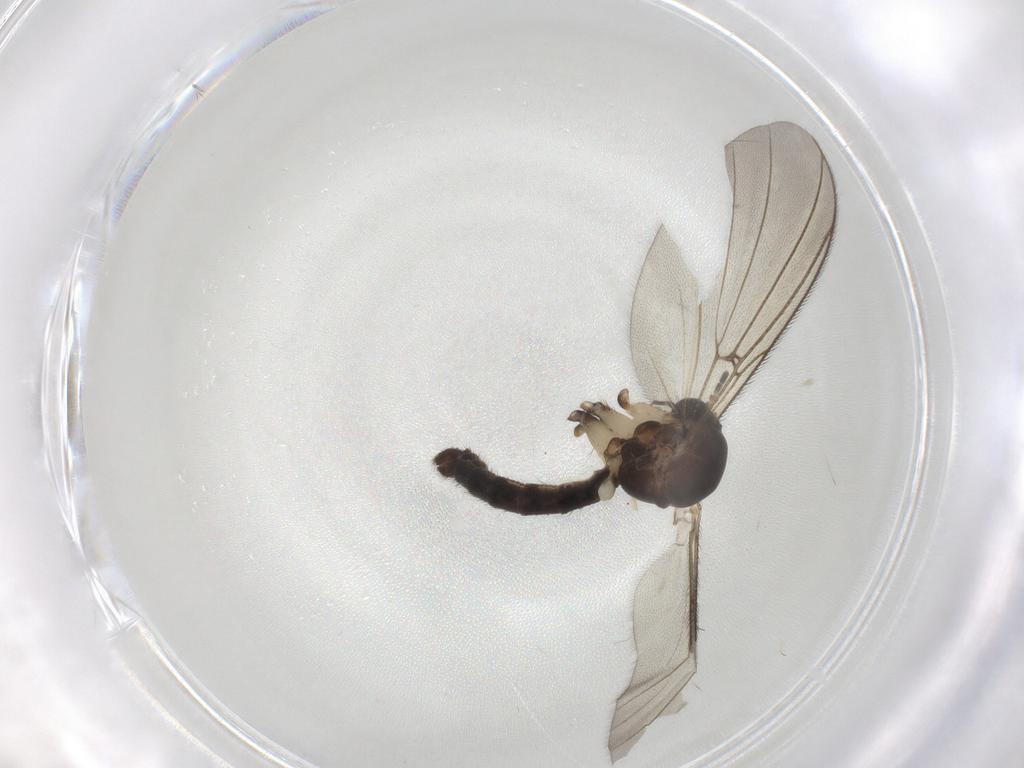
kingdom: Animalia
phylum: Arthropoda
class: Insecta
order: Diptera
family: Mycetophilidae
